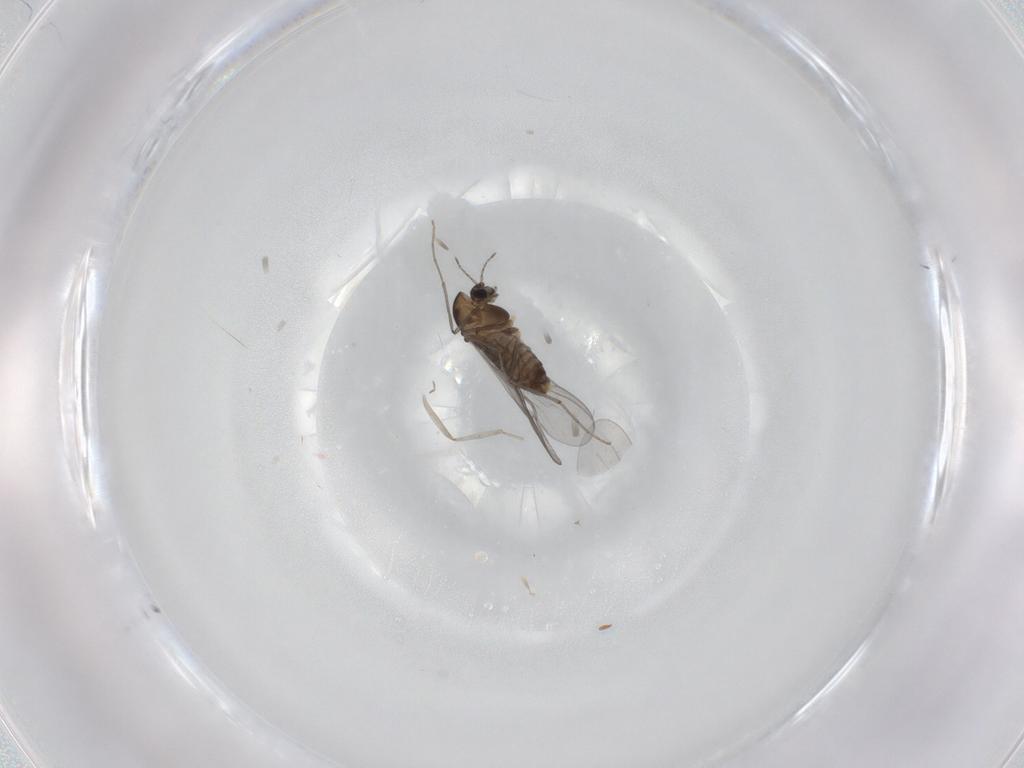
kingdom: Animalia
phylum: Arthropoda
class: Insecta
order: Diptera
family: Chironomidae
